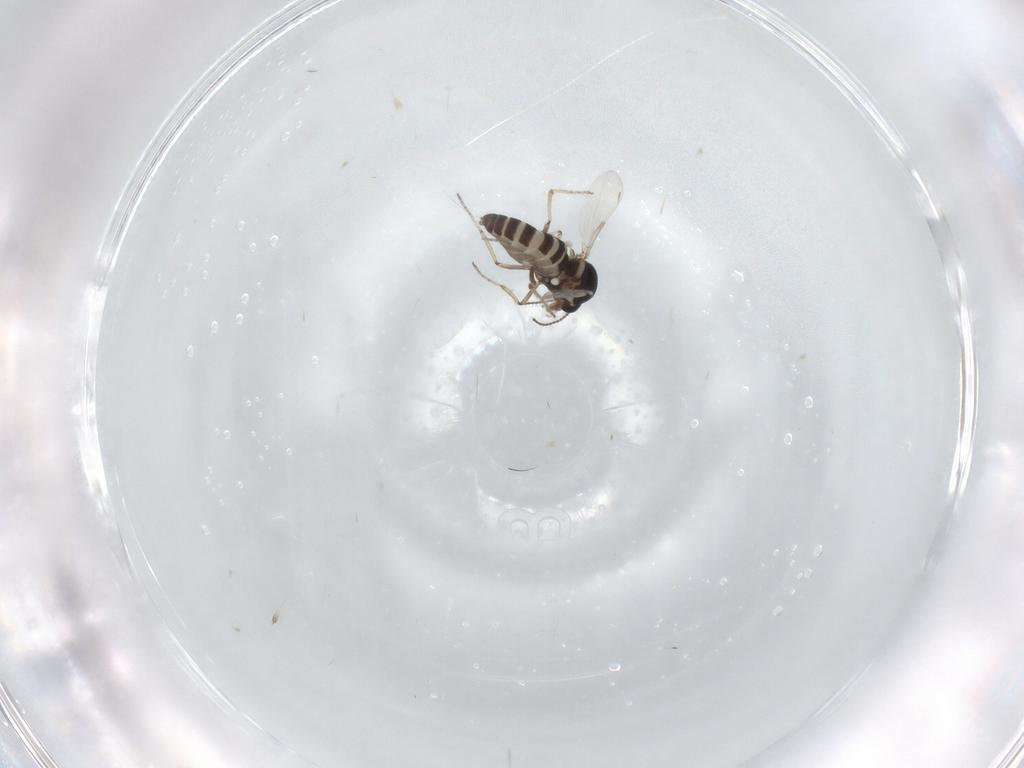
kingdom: Animalia
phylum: Arthropoda
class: Insecta
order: Diptera
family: Ceratopogonidae
